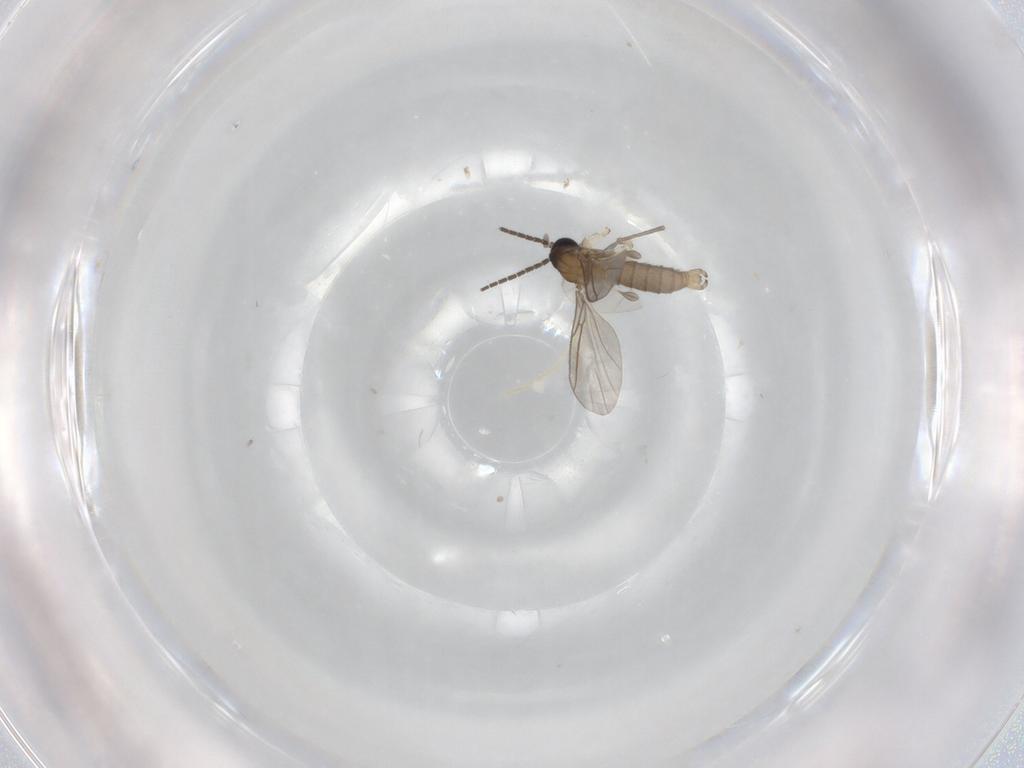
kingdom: Animalia
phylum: Arthropoda
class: Insecta
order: Diptera
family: Sciaridae
